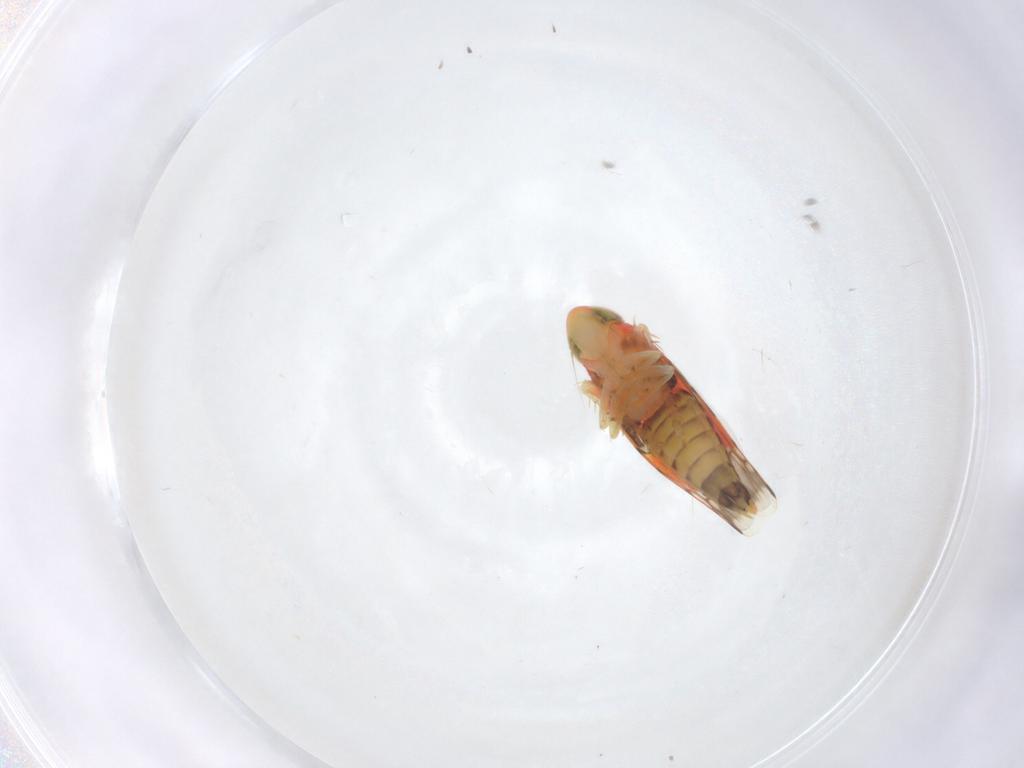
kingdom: Animalia
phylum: Arthropoda
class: Insecta
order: Hemiptera
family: Cicadellidae
